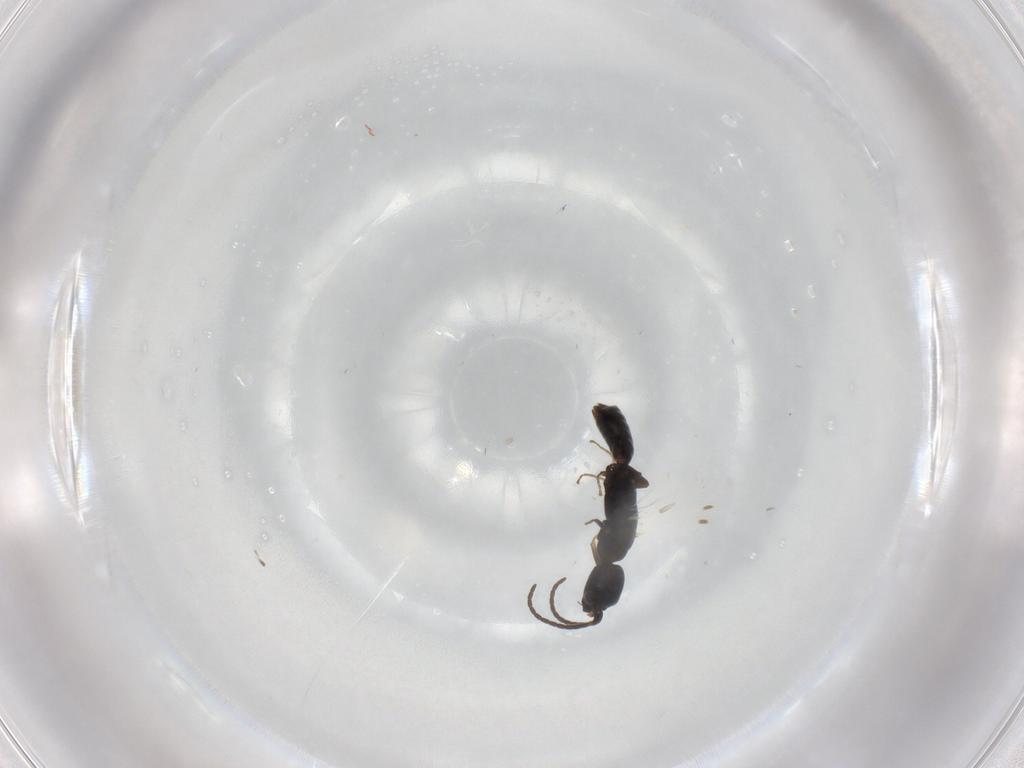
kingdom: Animalia
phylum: Arthropoda
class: Insecta
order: Hymenoptera
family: Bethylidae
